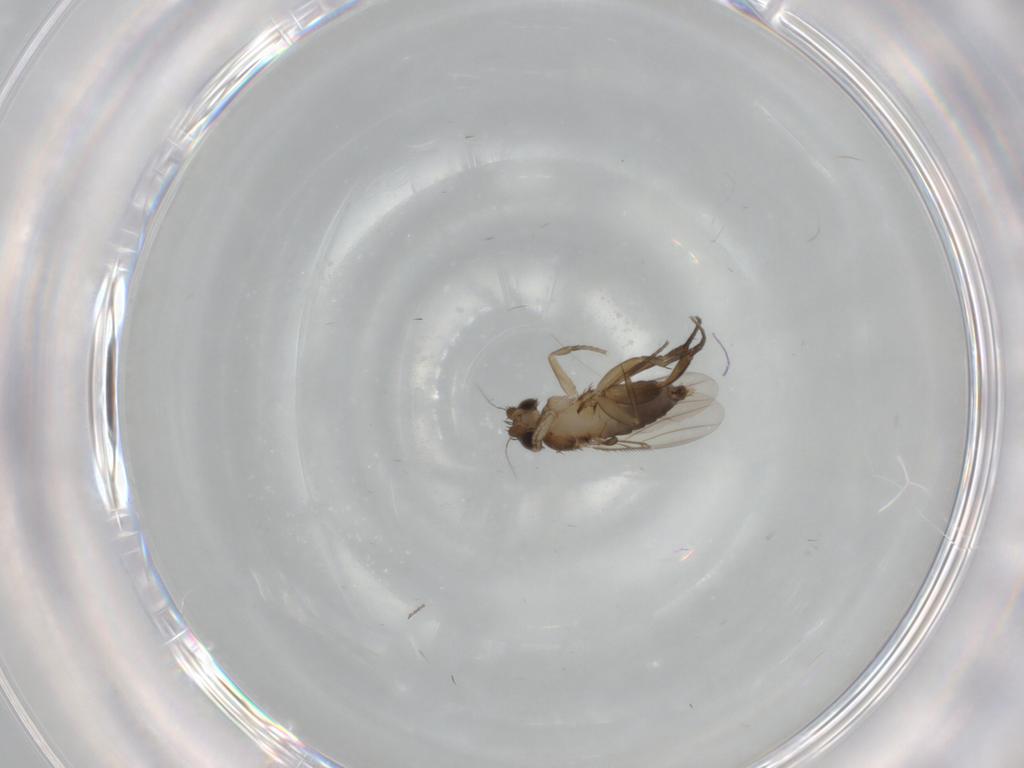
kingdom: Animalia
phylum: Arthropoda
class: Insecta
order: Diptera
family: Phoridae
